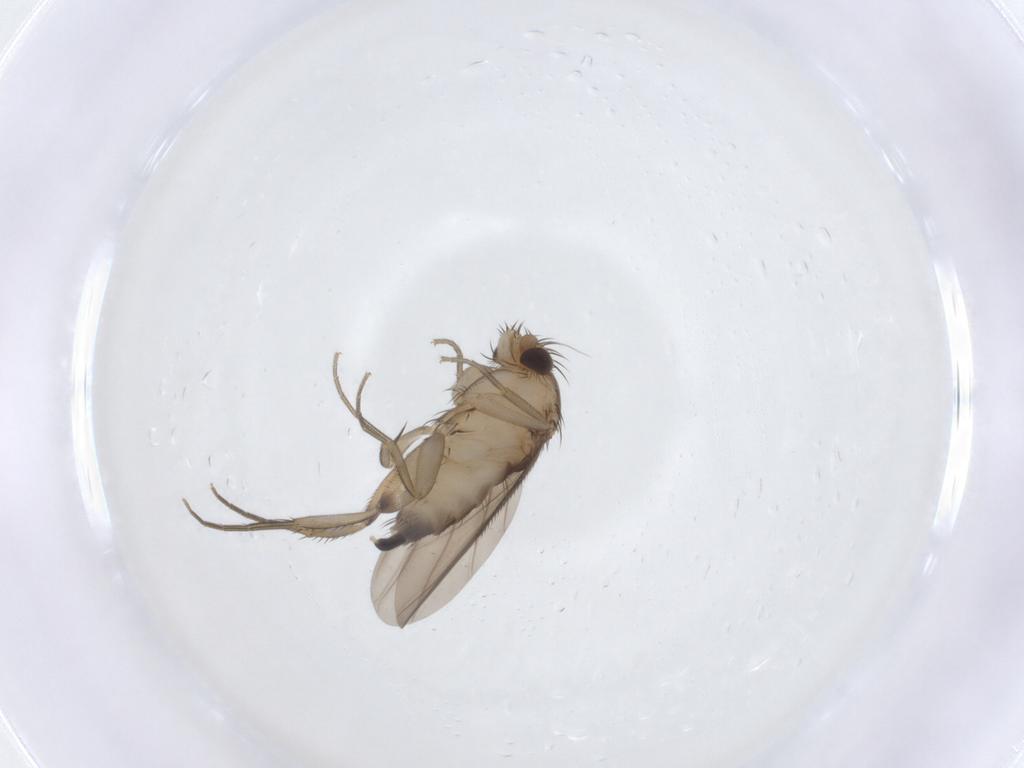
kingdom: Animalia
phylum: Arthropoda
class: Insecta
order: Diptera
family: Phoridae
